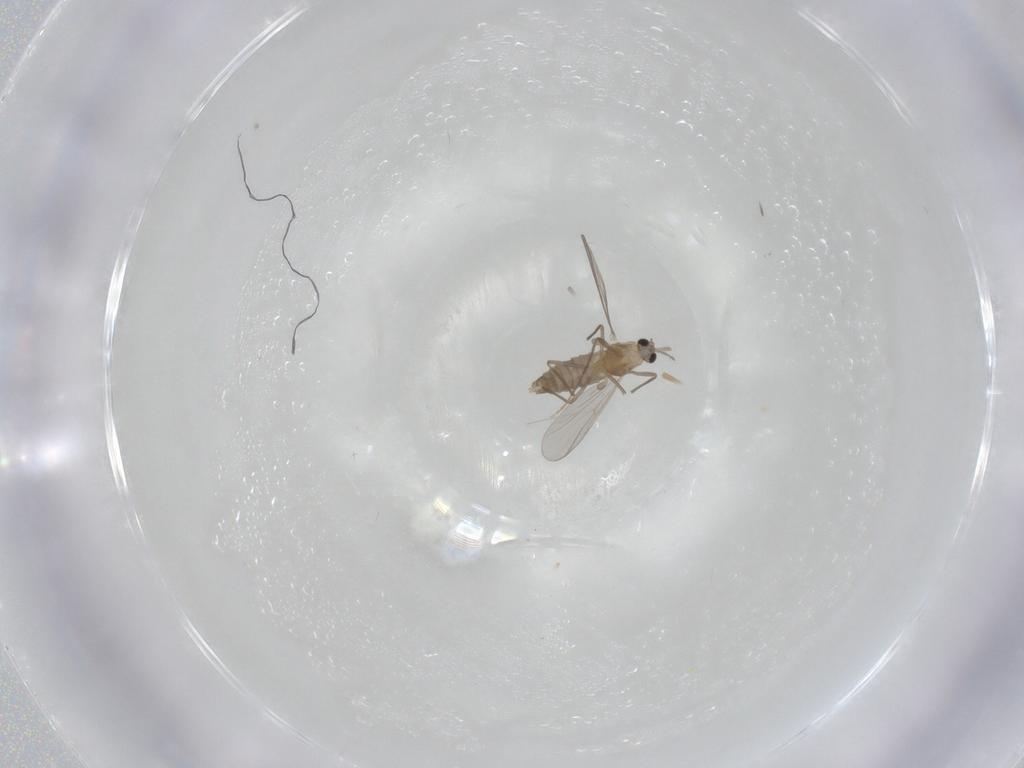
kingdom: Animalia
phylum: Arthropoda
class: Insecta
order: Diptera
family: Chironomidae
